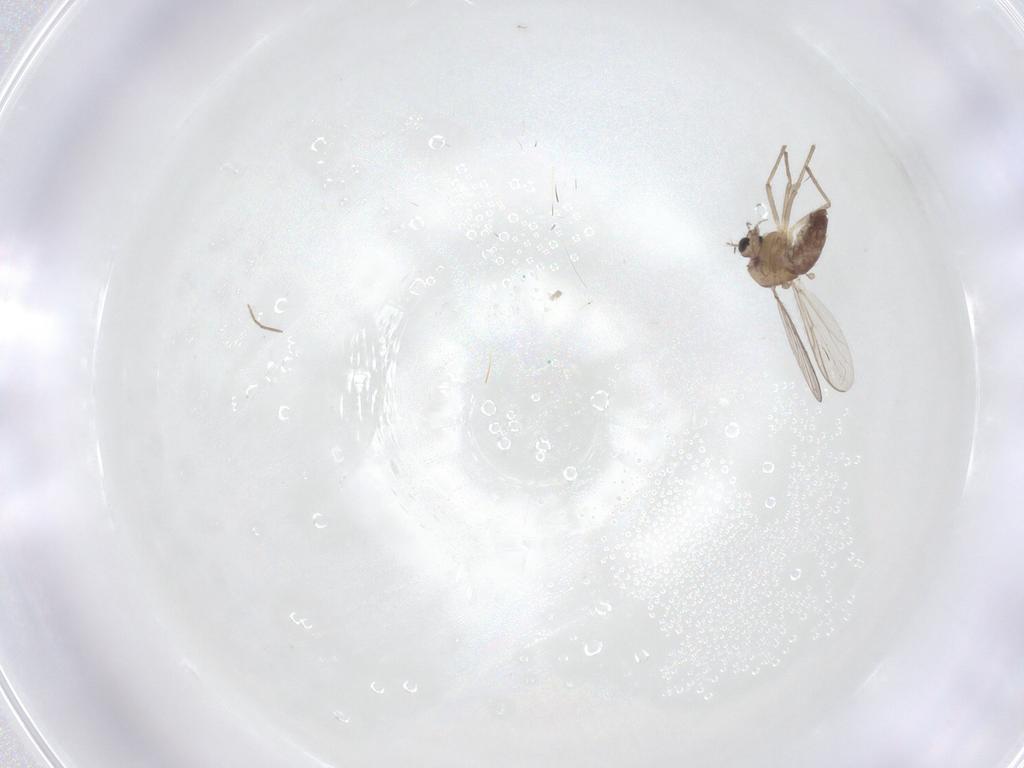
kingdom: Animalia
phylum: Arthropoda
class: Insecta
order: Diptera
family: Chironomidae
